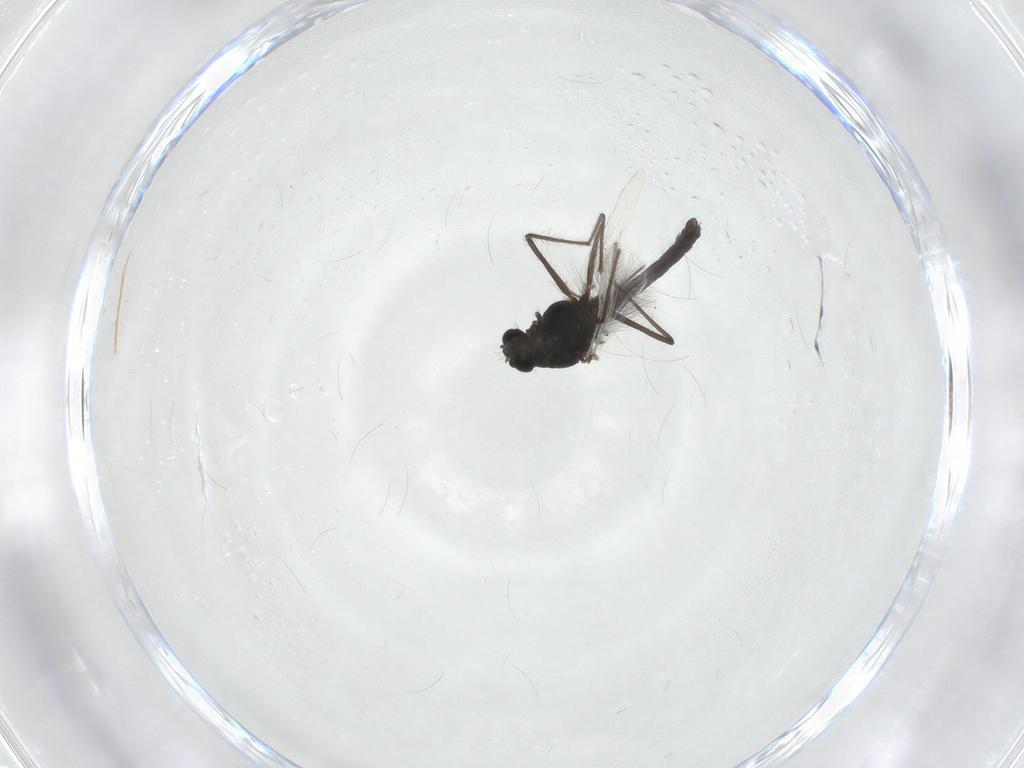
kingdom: Animalia
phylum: Arthropoda
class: Insecta
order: Diptera
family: Chironomidae
